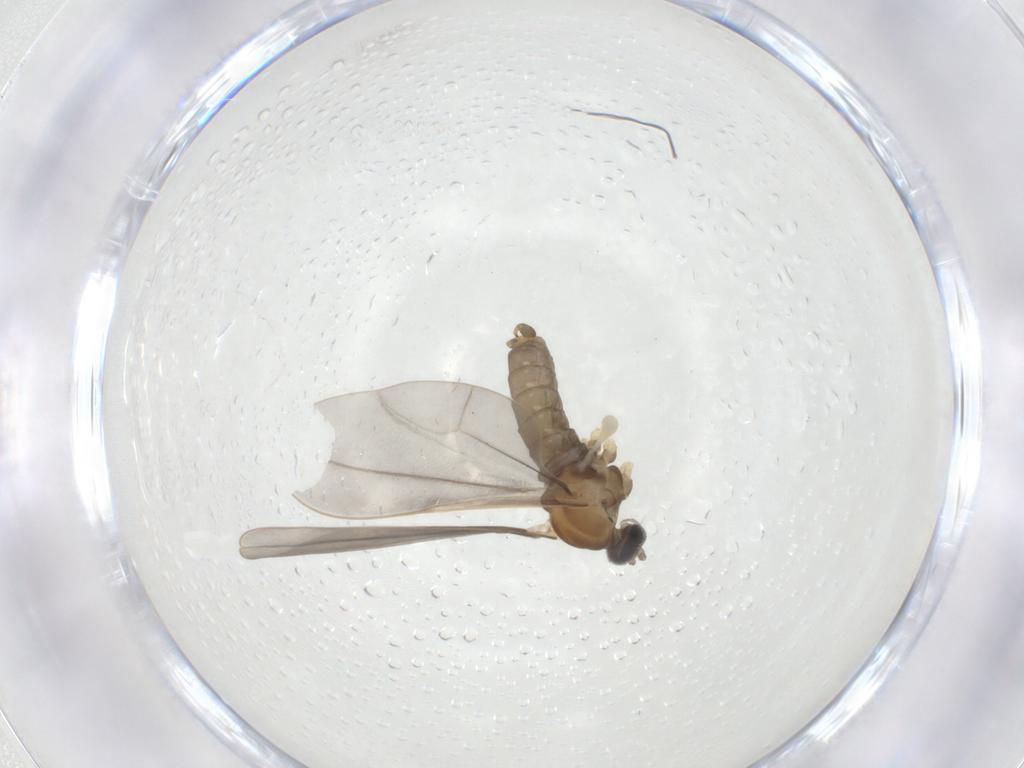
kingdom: Animalia
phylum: Arthropoda
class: Insecta
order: Diptera
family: Cecidomyiidae
